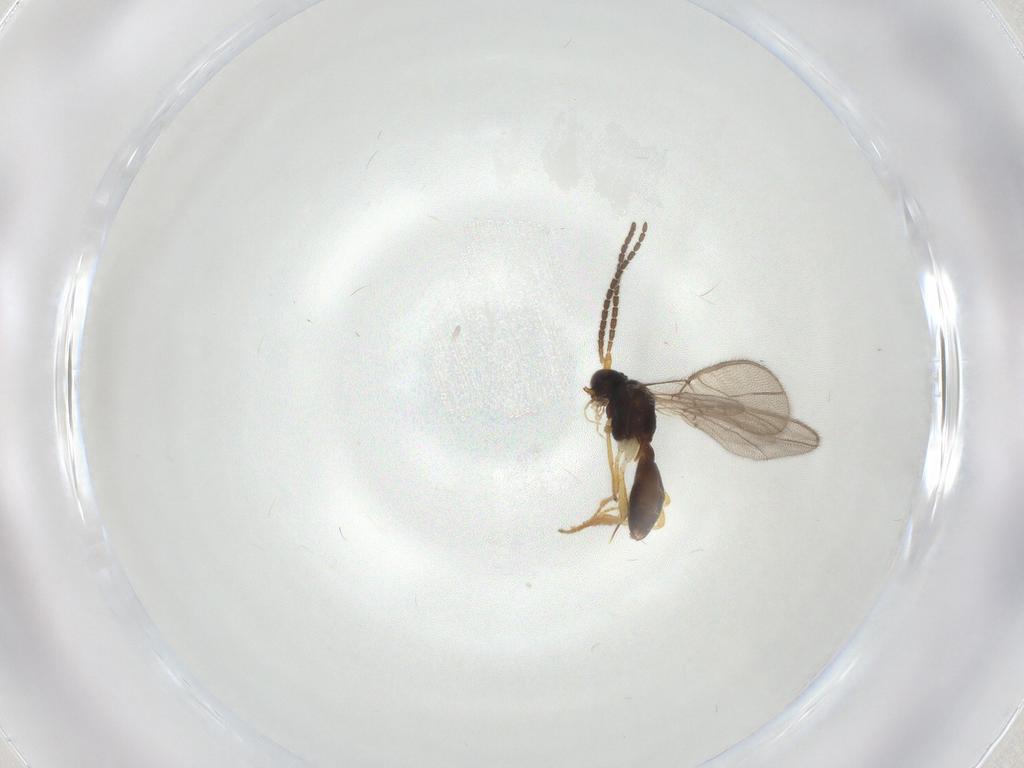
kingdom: Animalia
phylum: Arthropoda
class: Insecta
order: Hymenoptera
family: Braconidae
